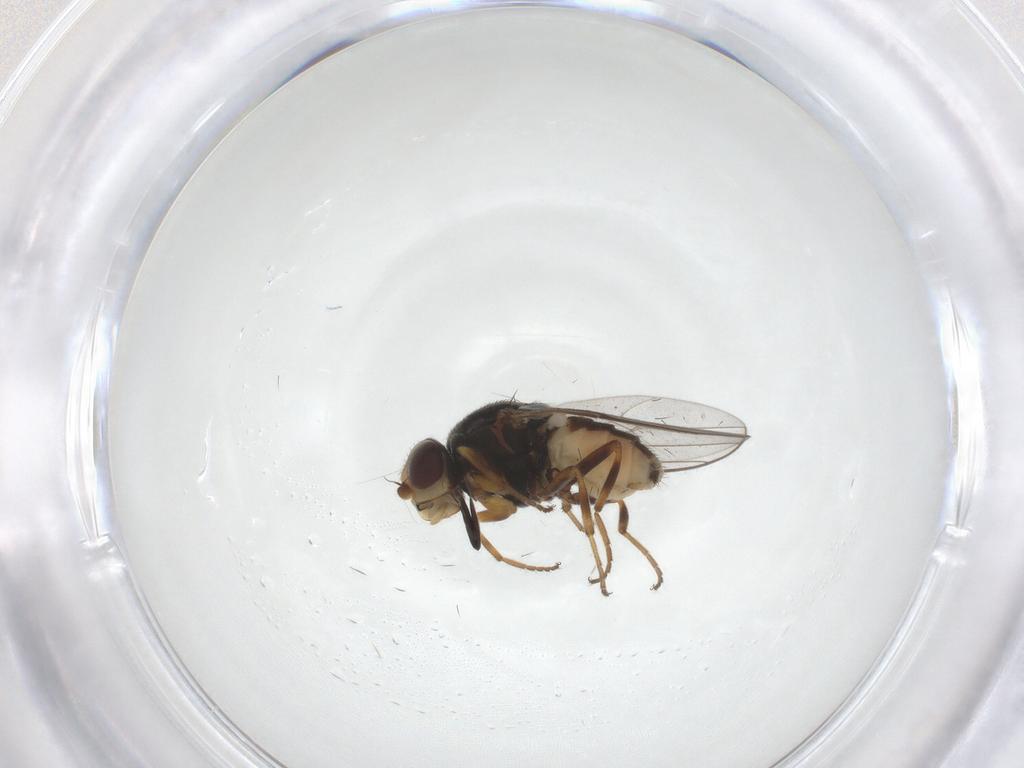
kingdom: Animalia
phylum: Arthropoda
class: Insecta
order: Diptera
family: Chloropidae
